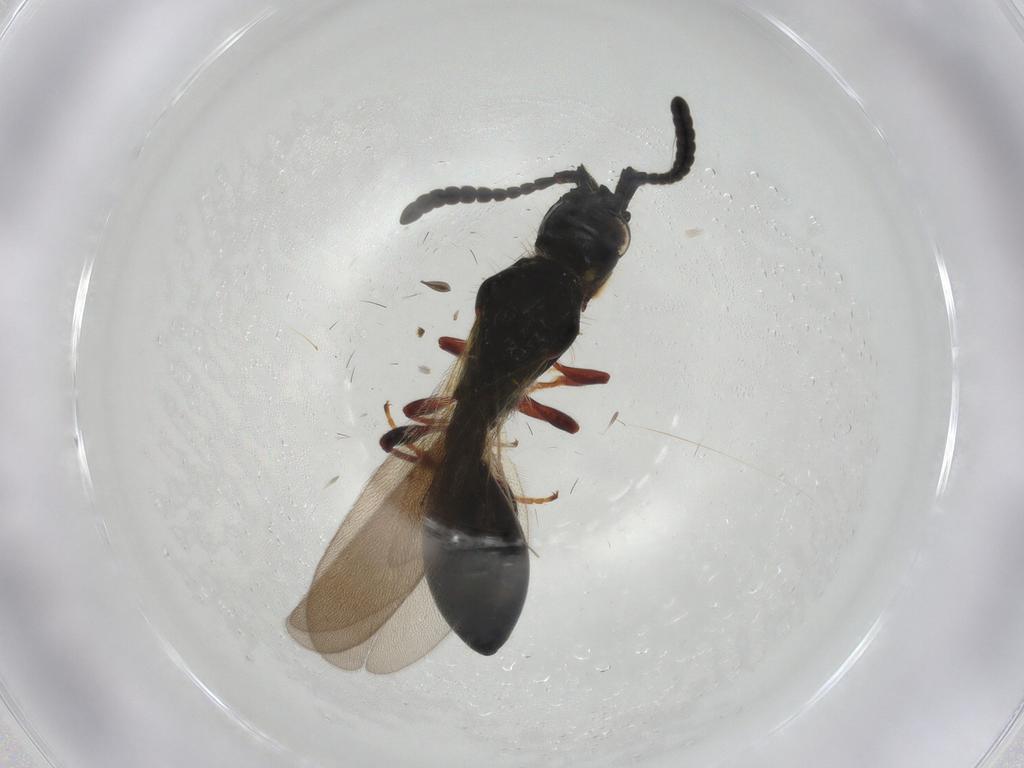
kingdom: Animalia
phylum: Arthropoda
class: Insecta
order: Hymenoptera
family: Diapriidae
